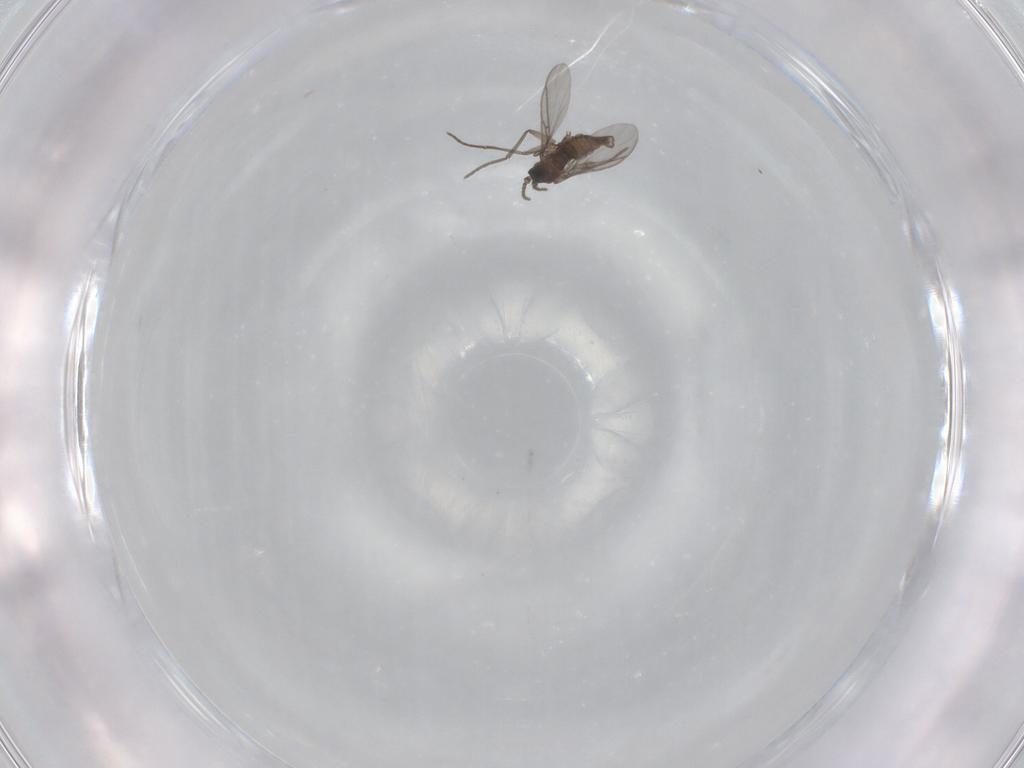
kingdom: Animalia
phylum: Arthropoda
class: Insecta
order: Diptera
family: Sciaridae
